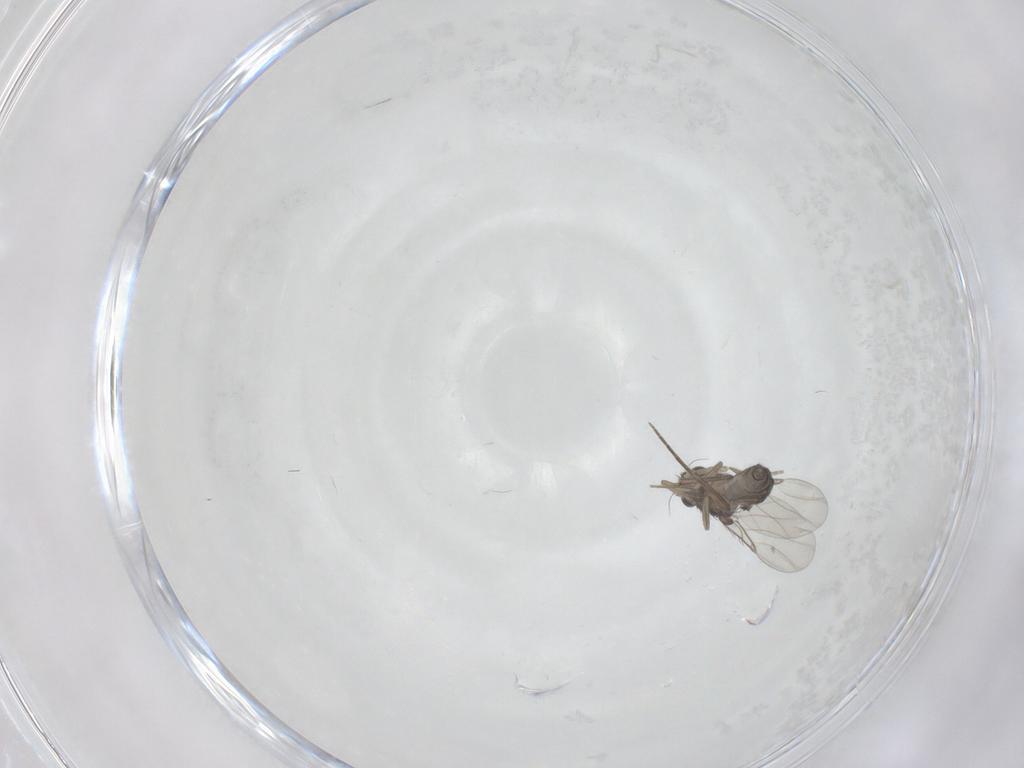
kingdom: Animalia
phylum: Arthropoda
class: Insecta
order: Diptera
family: Phoridae
